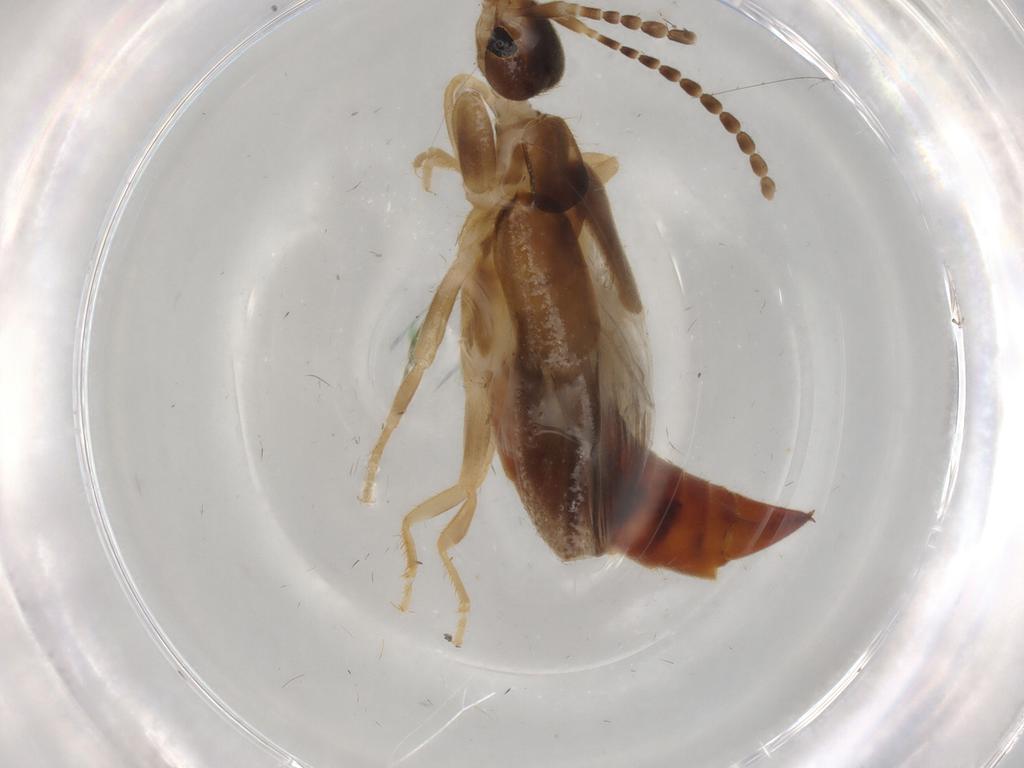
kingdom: Animalia
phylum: Arthropoda
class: Insecta
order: Dermaptera
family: Labiduridae
